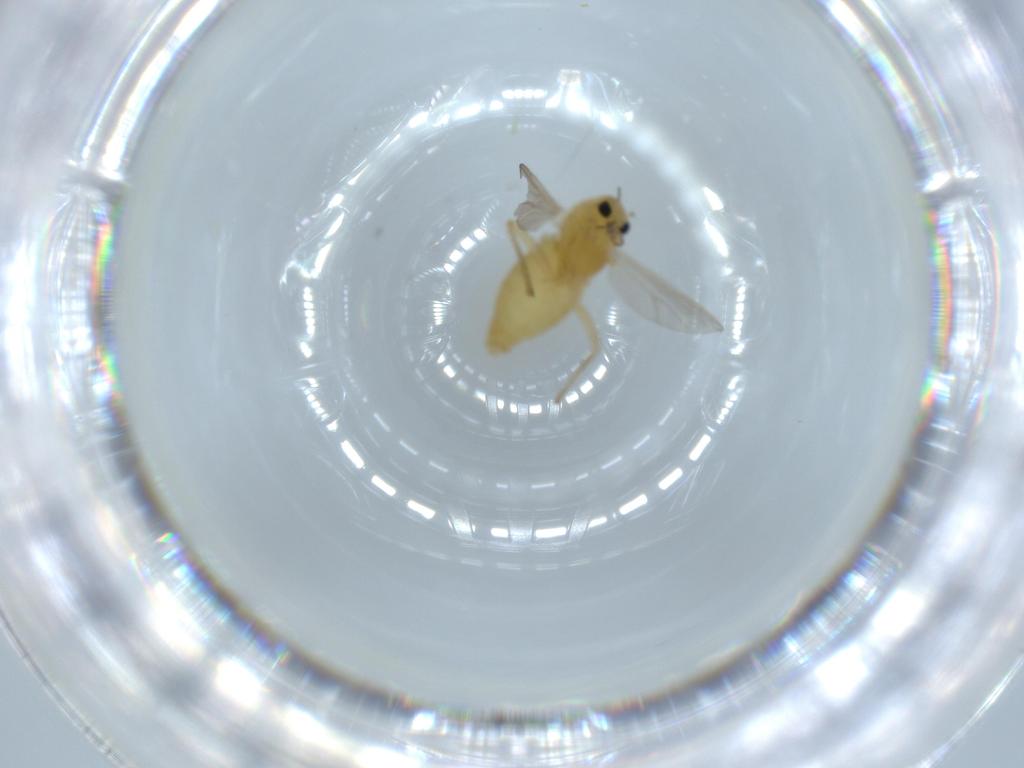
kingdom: Animalia
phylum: Arthropoda
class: Insecta
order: Diptera
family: Chironomidae
